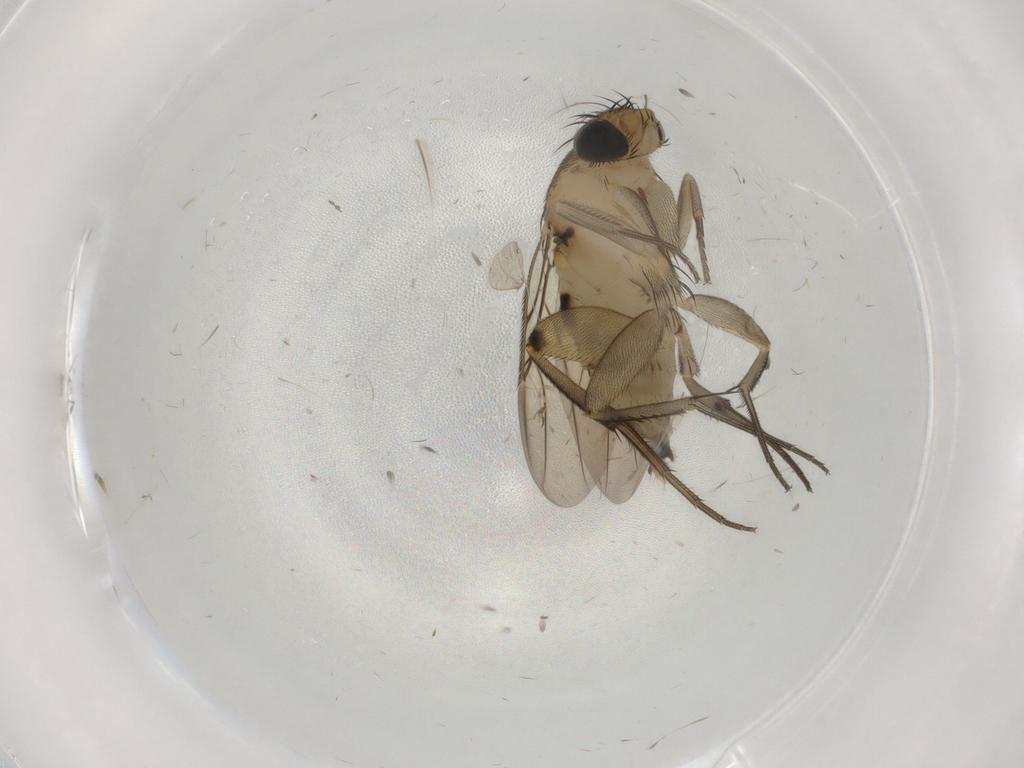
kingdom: Animalia
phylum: Arthropoda
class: Insecta
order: Diptera
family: Phoridae
